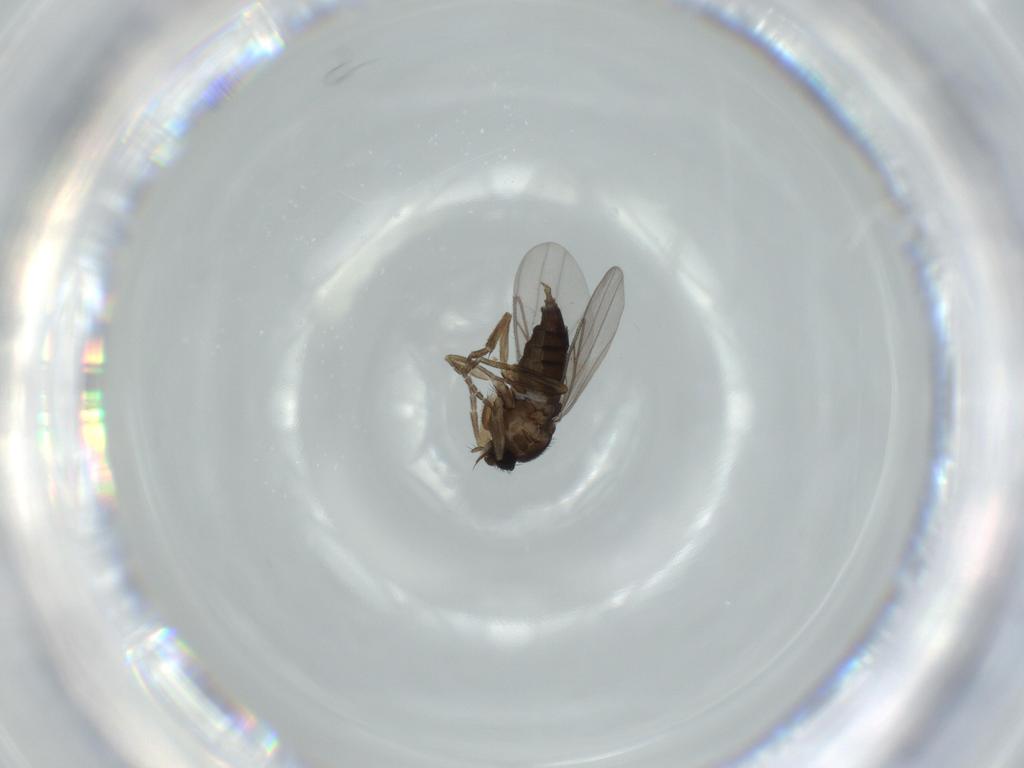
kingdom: Animalia
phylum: Arthropoda
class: Insecta
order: Diptera
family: Phoridae
